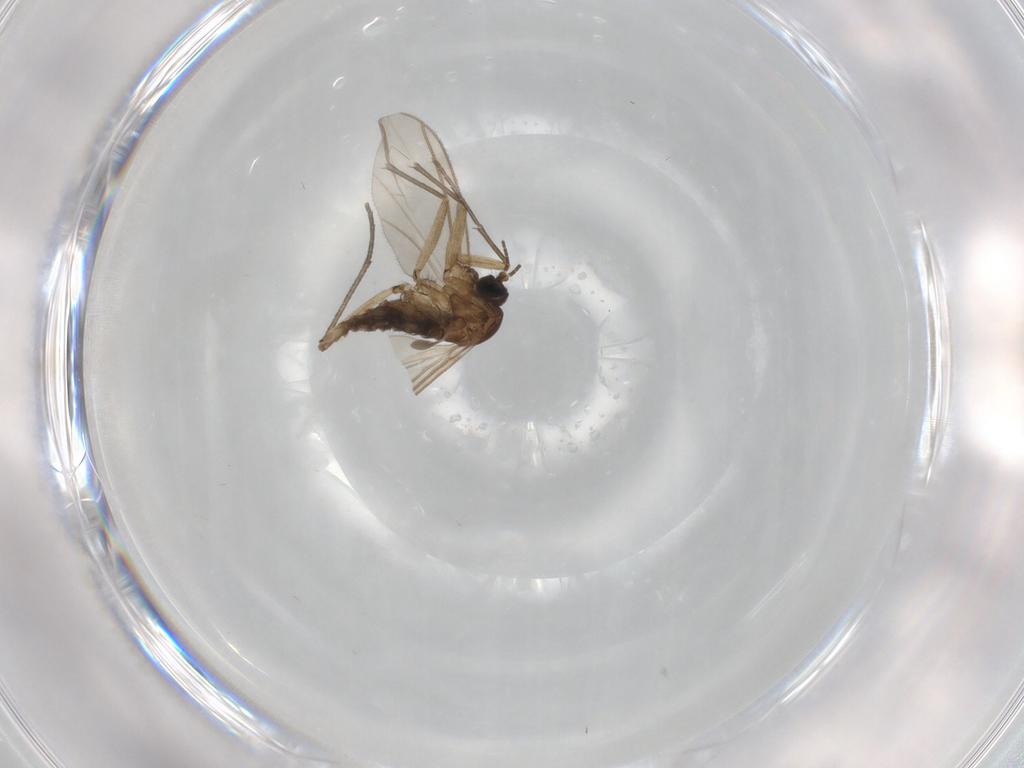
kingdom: Animalia
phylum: Arthropoda
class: Insecta
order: Diptera
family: Sciaridae
